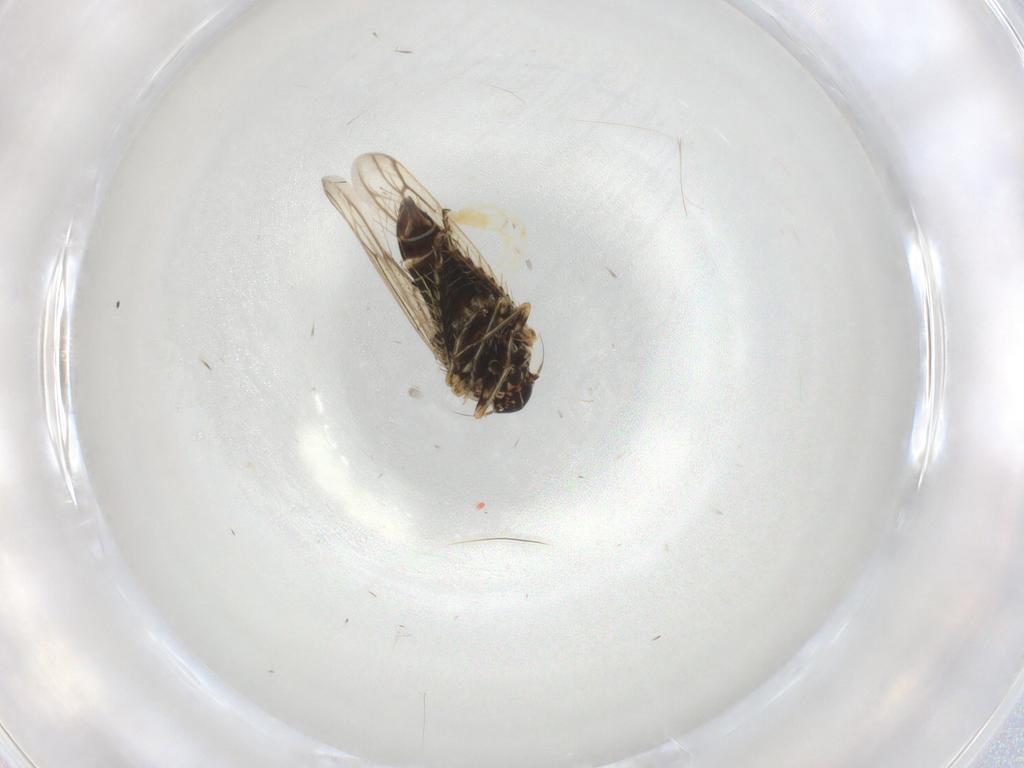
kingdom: Animalia
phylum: Arthropoda
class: Insecta
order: Hemiptera
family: Cicadellidae
